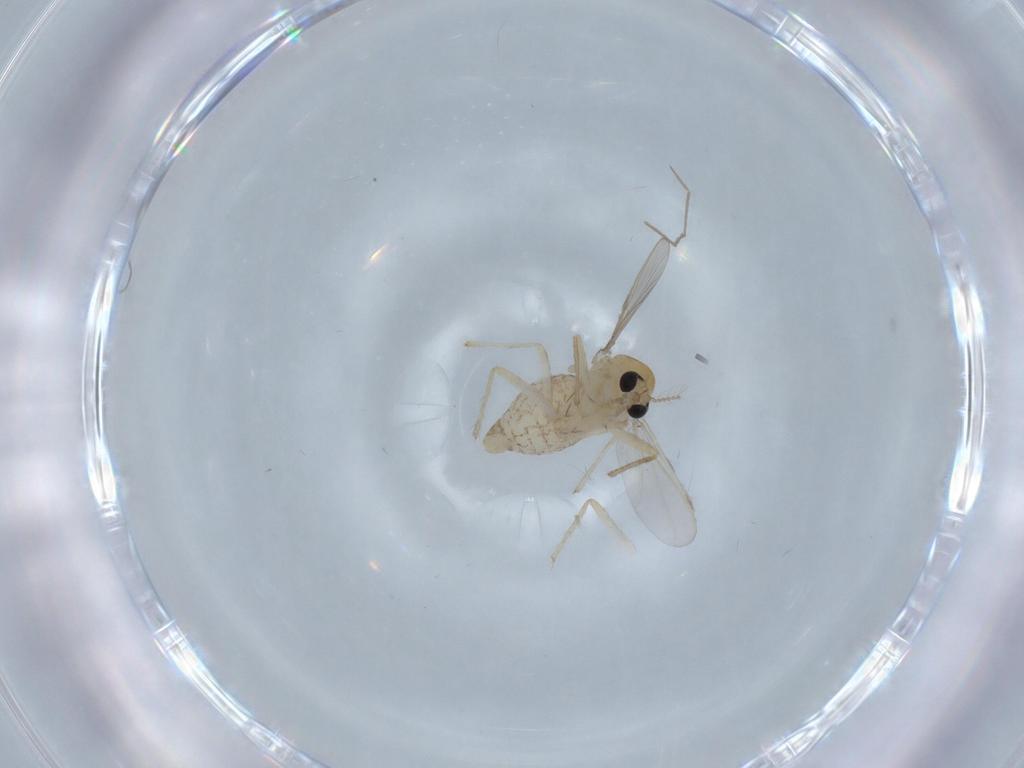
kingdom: Animalia
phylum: Arthropoda
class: Insecta
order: Diptera
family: Chironomidae
